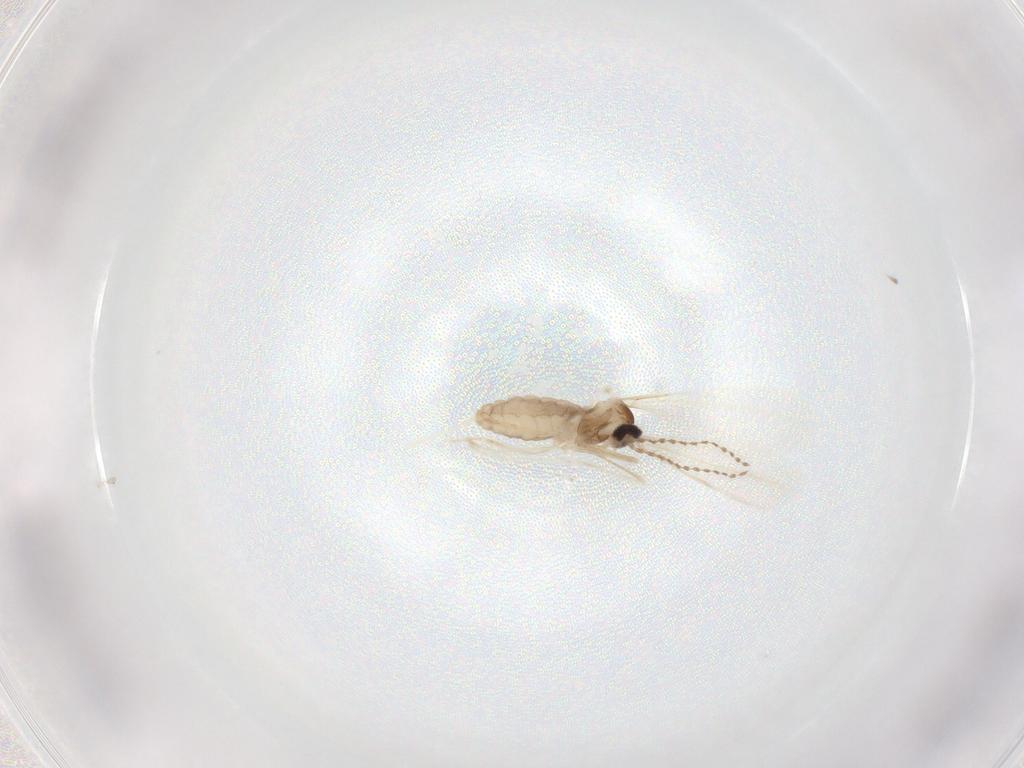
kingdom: Animalia
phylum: Arthropoda
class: Insecta
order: Diptera
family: Cecidomyiidae
